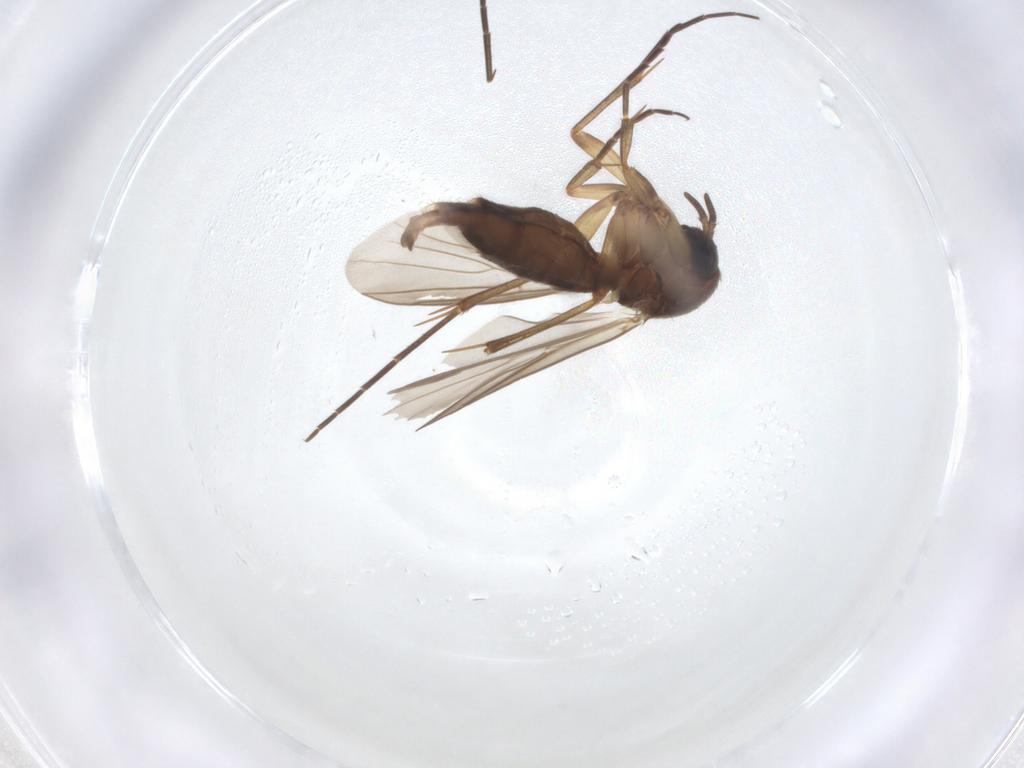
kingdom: Animalia
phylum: Arthropoda
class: Insecta
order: Diptera
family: Mycetophilidae
